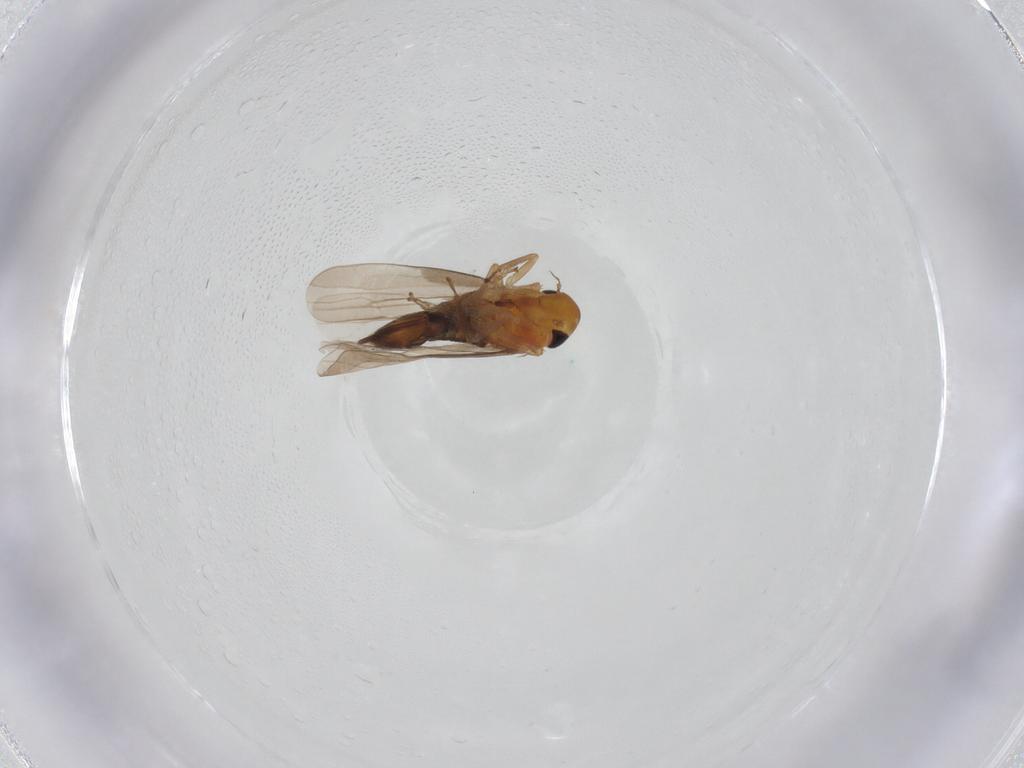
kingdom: Animalia
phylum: Arthropoda
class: Insecta
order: Hemiptera
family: Cicadellidae
